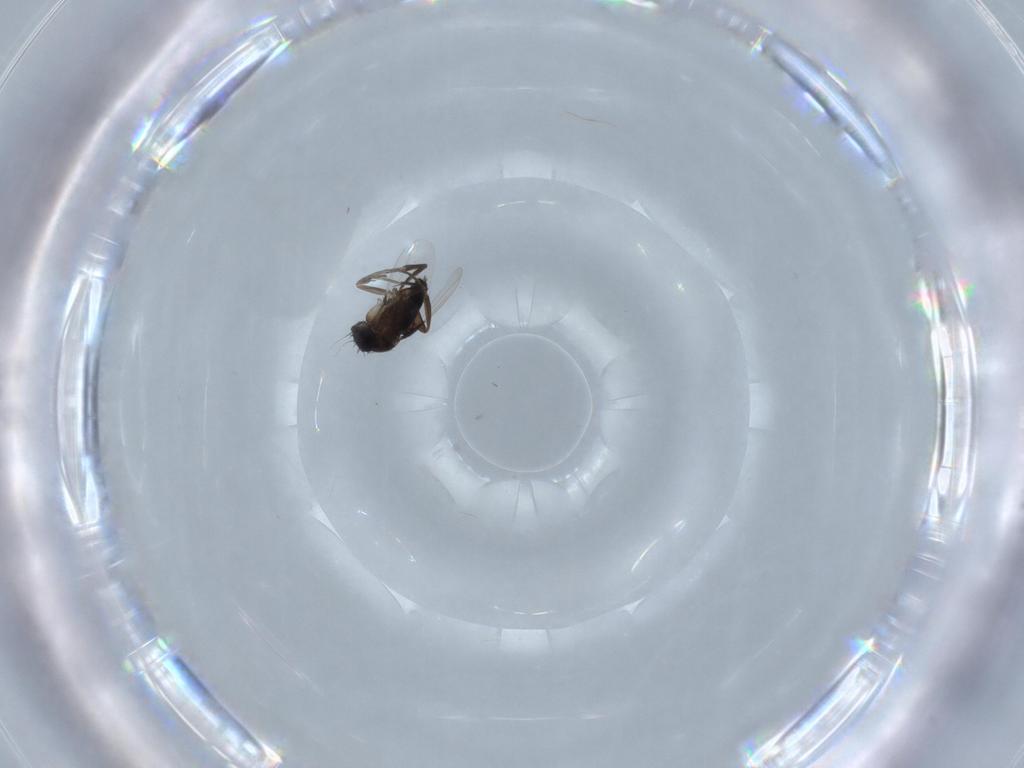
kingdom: Animalia
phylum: Arthropoda
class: Insecta
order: Diptera
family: Phoridae
